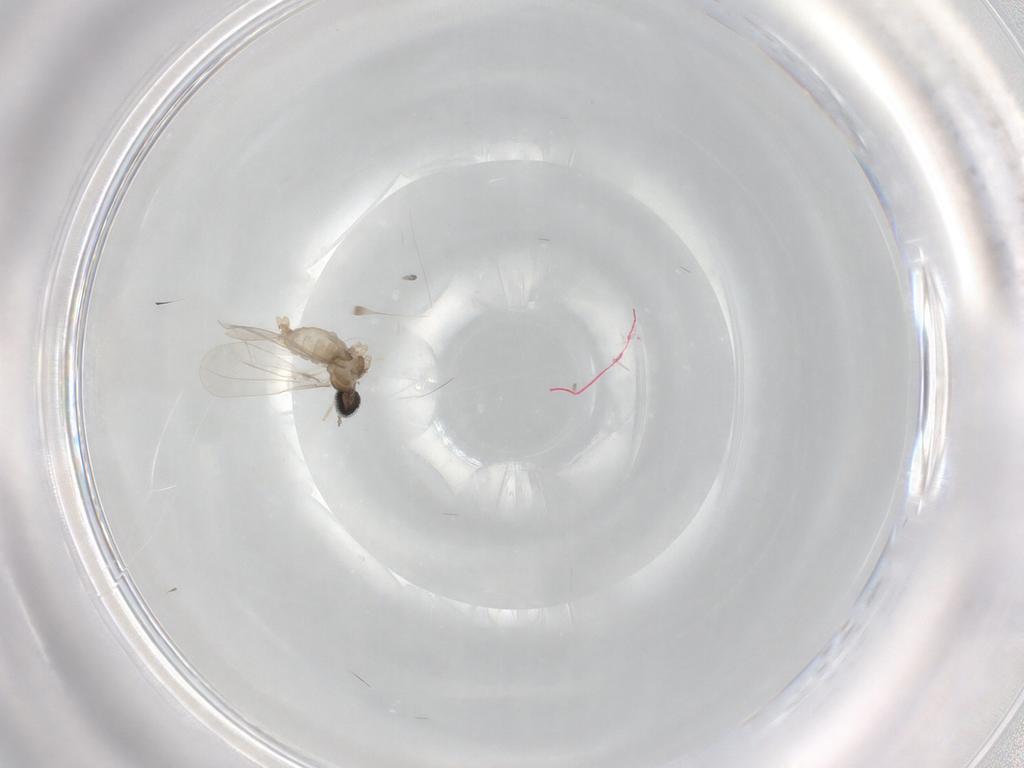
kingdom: Animalia
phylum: Arthropoda
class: Insecta
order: Diptera
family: Cecidomyiidae
